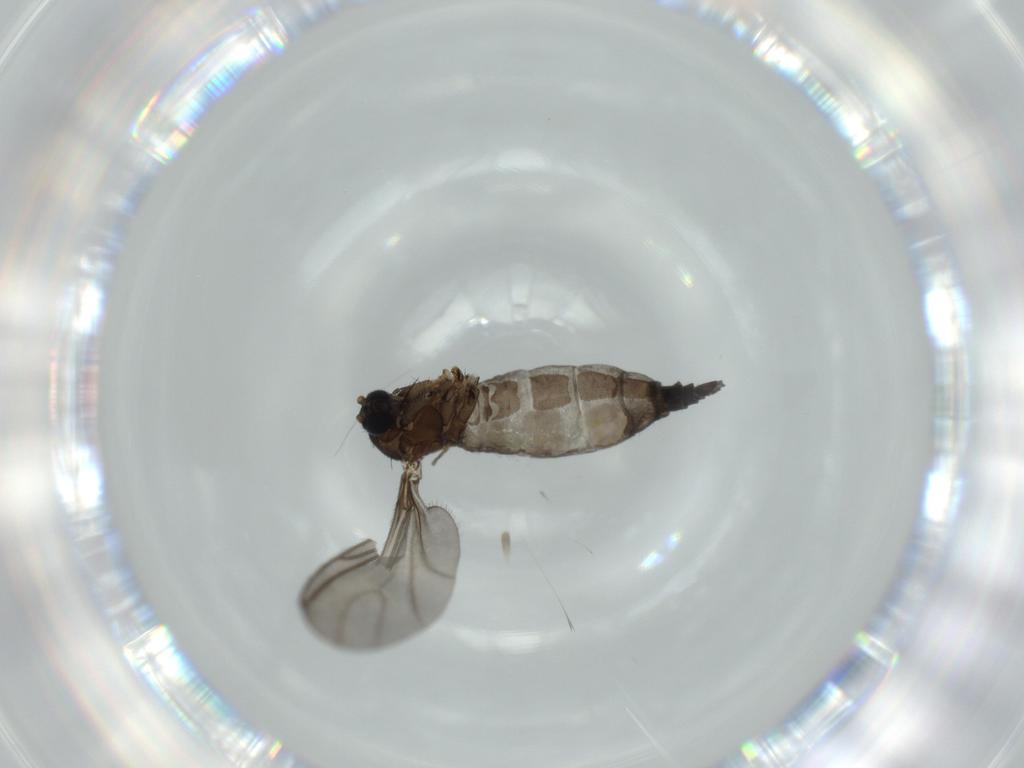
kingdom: Animalia
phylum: Arthropoda
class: Insecta
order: Diptera
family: Sciaridae
